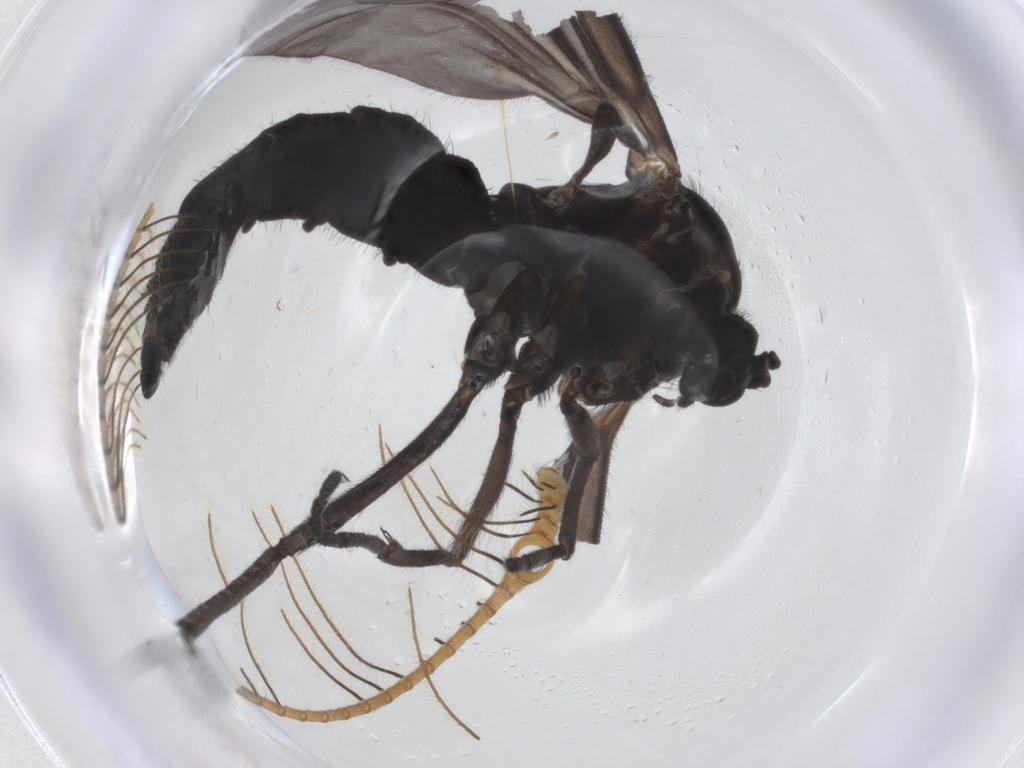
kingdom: Animalia
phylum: Arthropoda
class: Insecta
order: Diptera
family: Sciaridae
